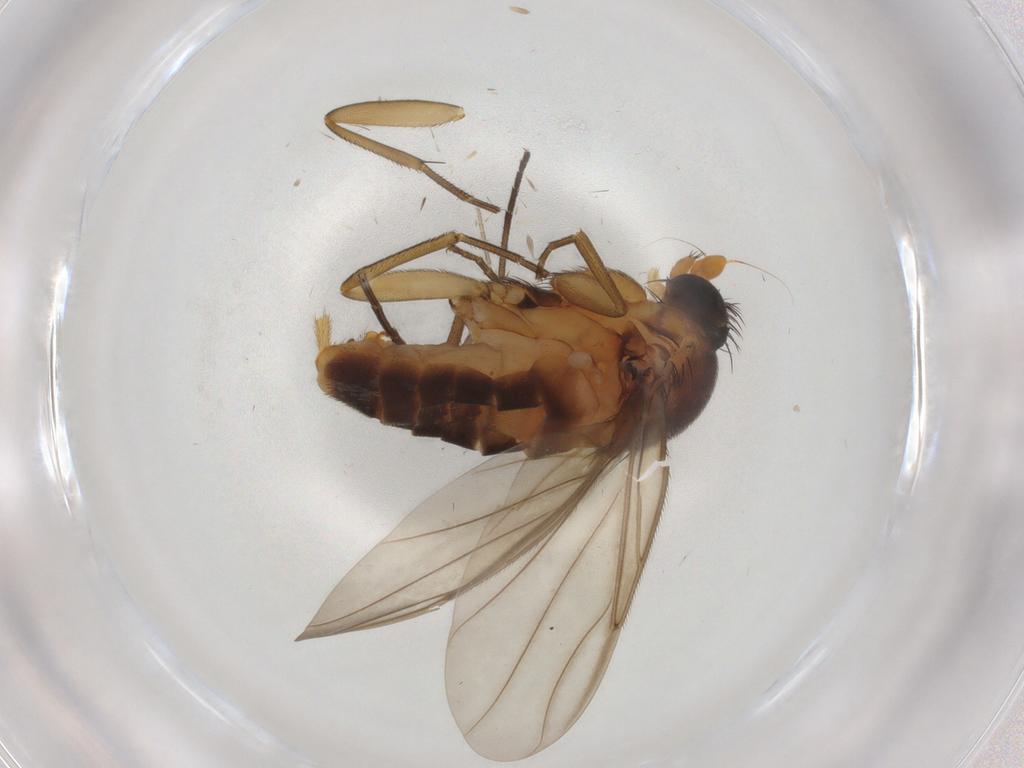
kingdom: Animalia
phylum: Arthropoda
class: Insecta
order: Diptera
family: Phoridae
